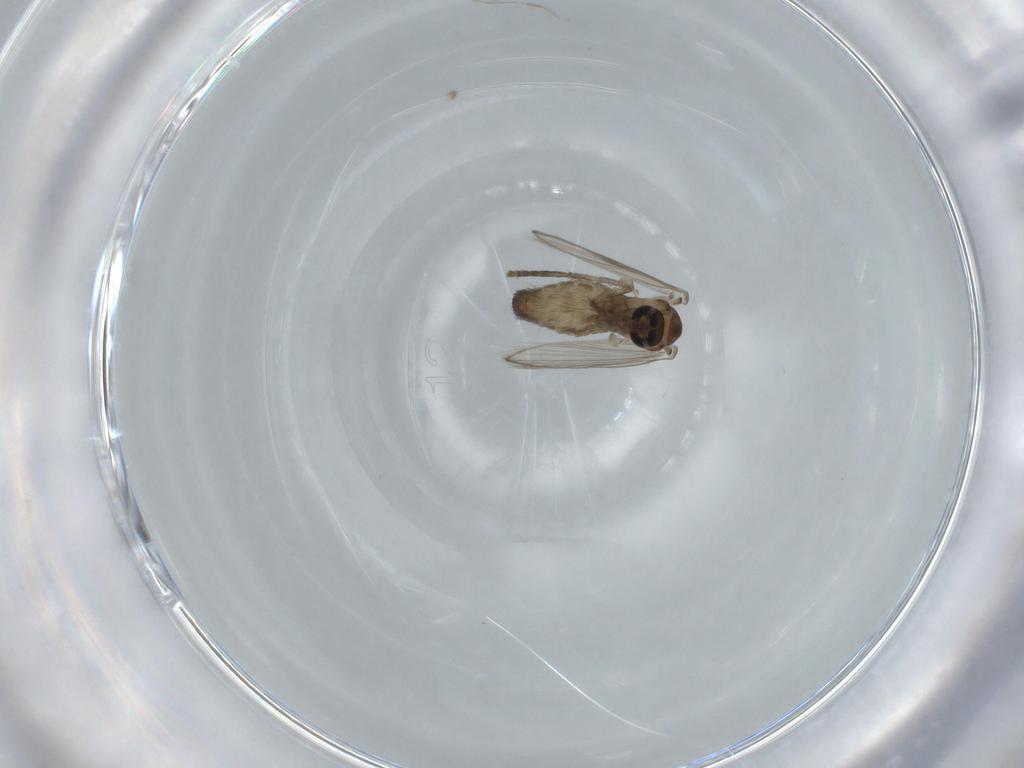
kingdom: Animalia
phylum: Arthropoda
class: Insecta
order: Diptera
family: Psychodidae
